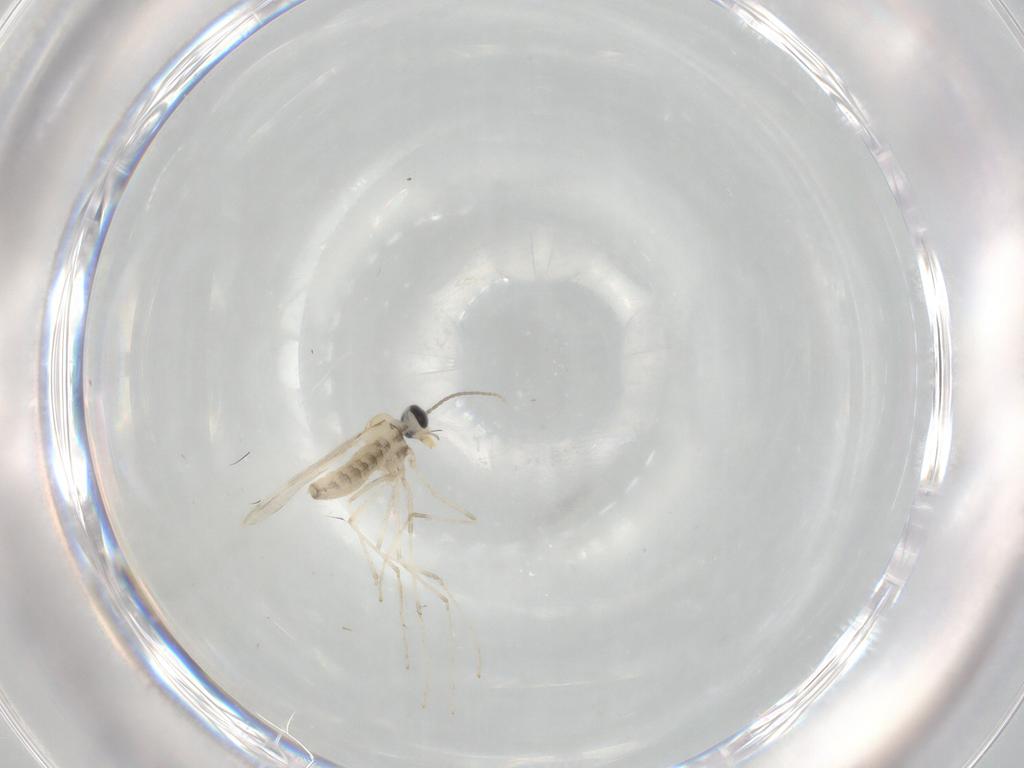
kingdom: Animalia
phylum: Arthropoda
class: Insecta
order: Diptera
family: Cecidomyiidae
